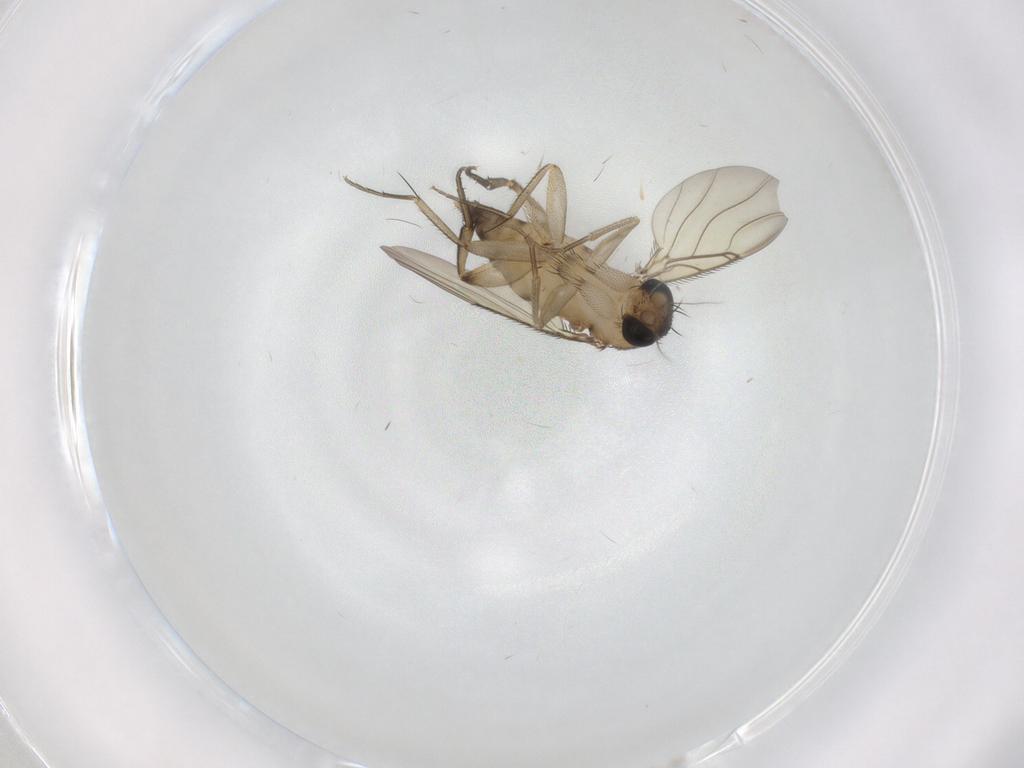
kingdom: Animalia
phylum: Arthropoda
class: Insecta
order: Diptera
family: Phoridae
